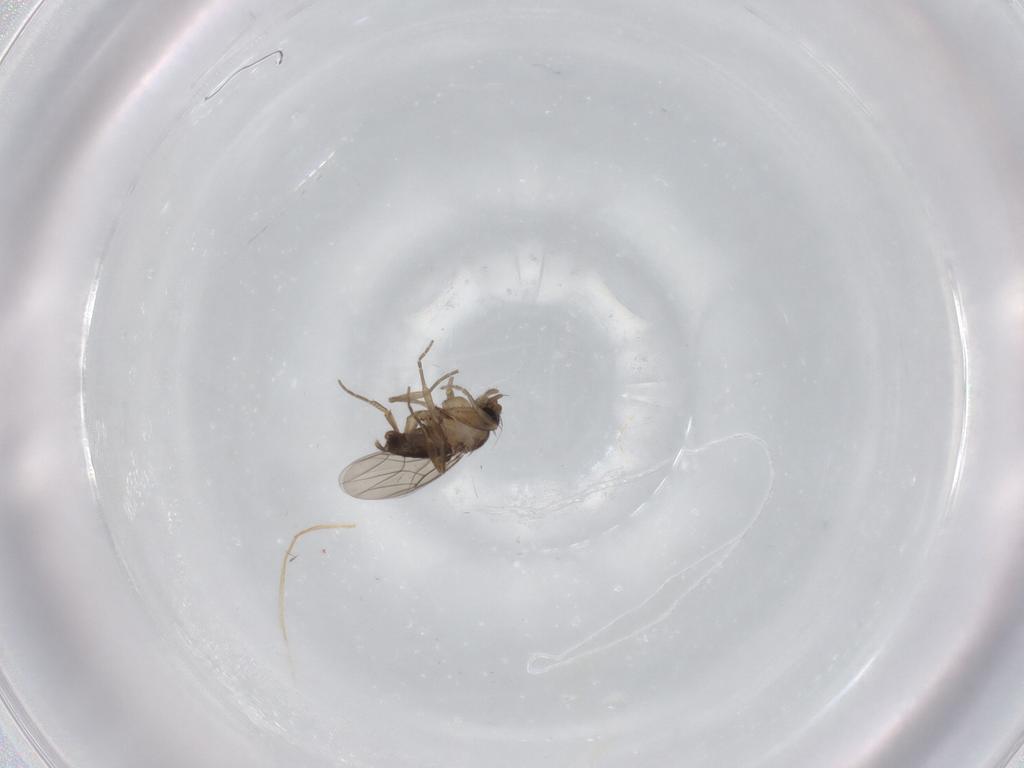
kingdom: Animalia
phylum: Arthropoda
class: Insecta
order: Diptera
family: Phoridae
